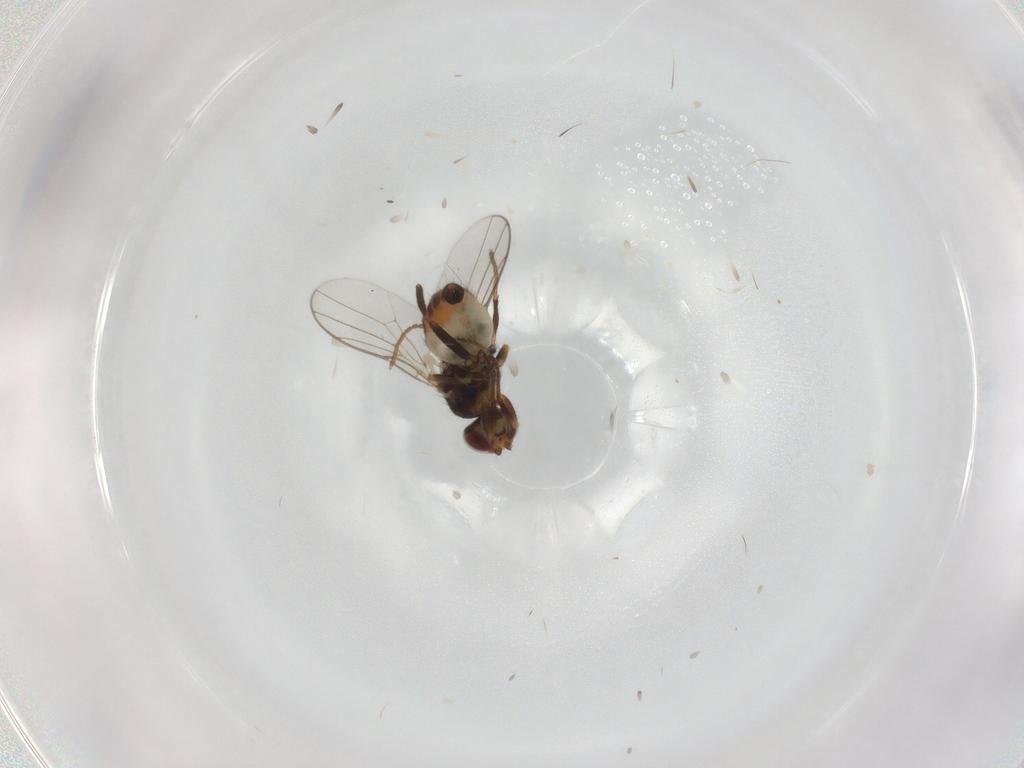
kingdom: Animalia
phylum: Arthropoda
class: Insecta
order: Diptera
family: Chloropidae
